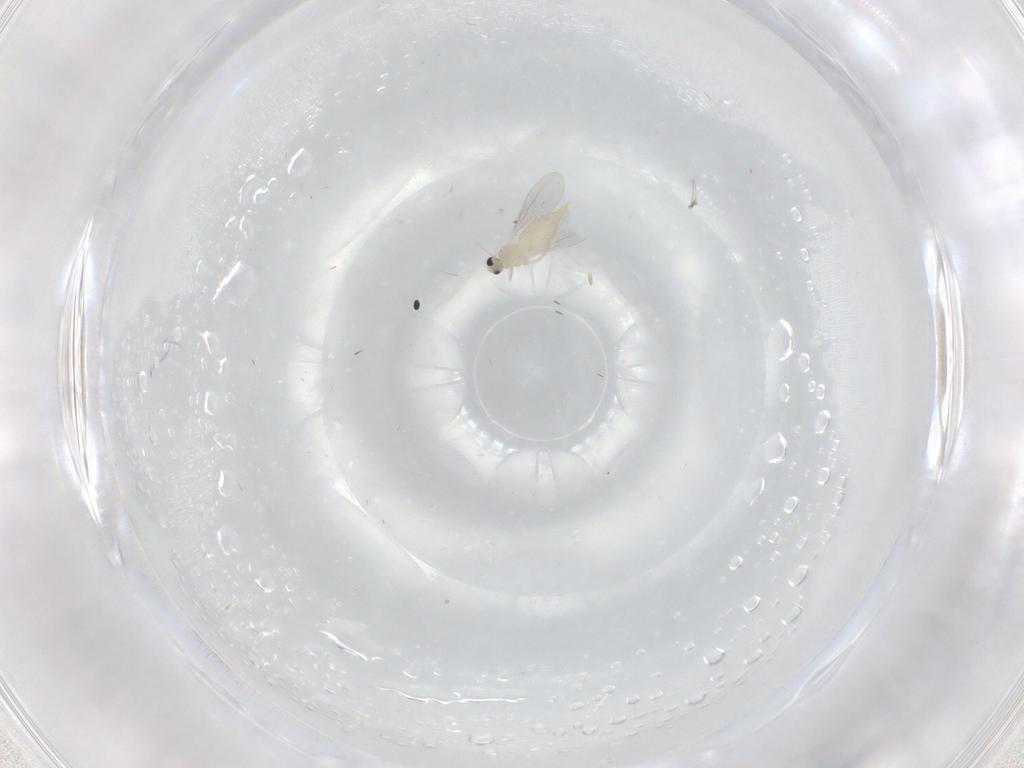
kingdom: Animalia
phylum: Arthropoda
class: Insecta
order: Diptera
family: Cecidomyiidae
